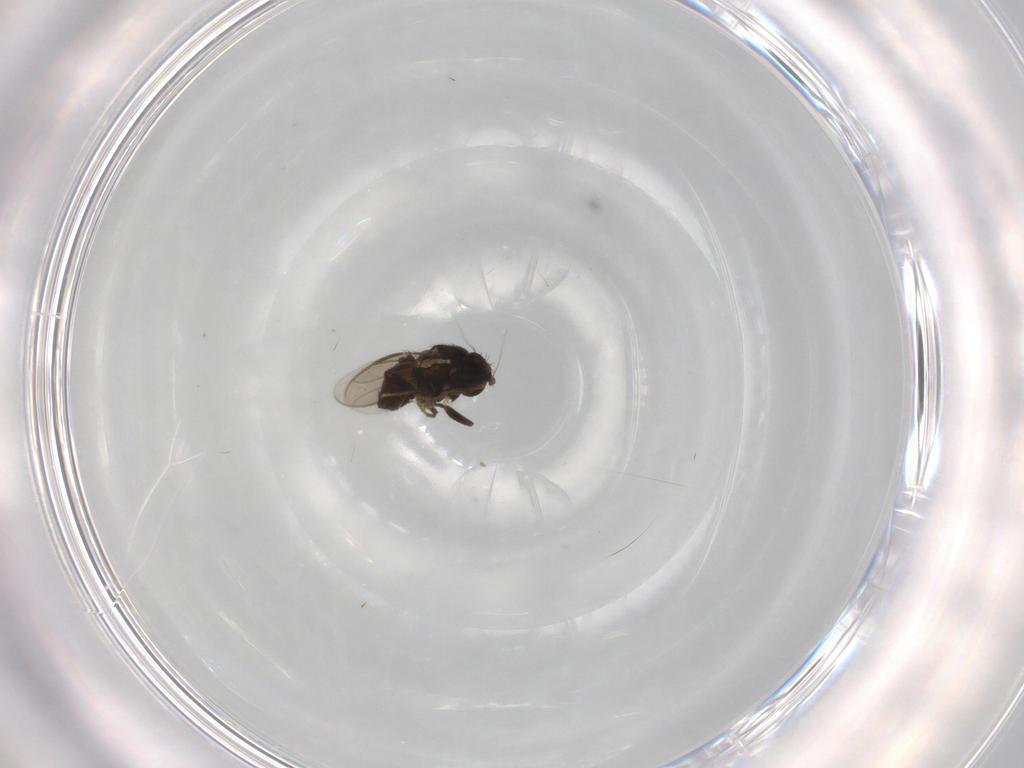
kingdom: Animalia
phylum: Arthropoda
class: Insecta
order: Diptera
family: Sphaeroceridae
